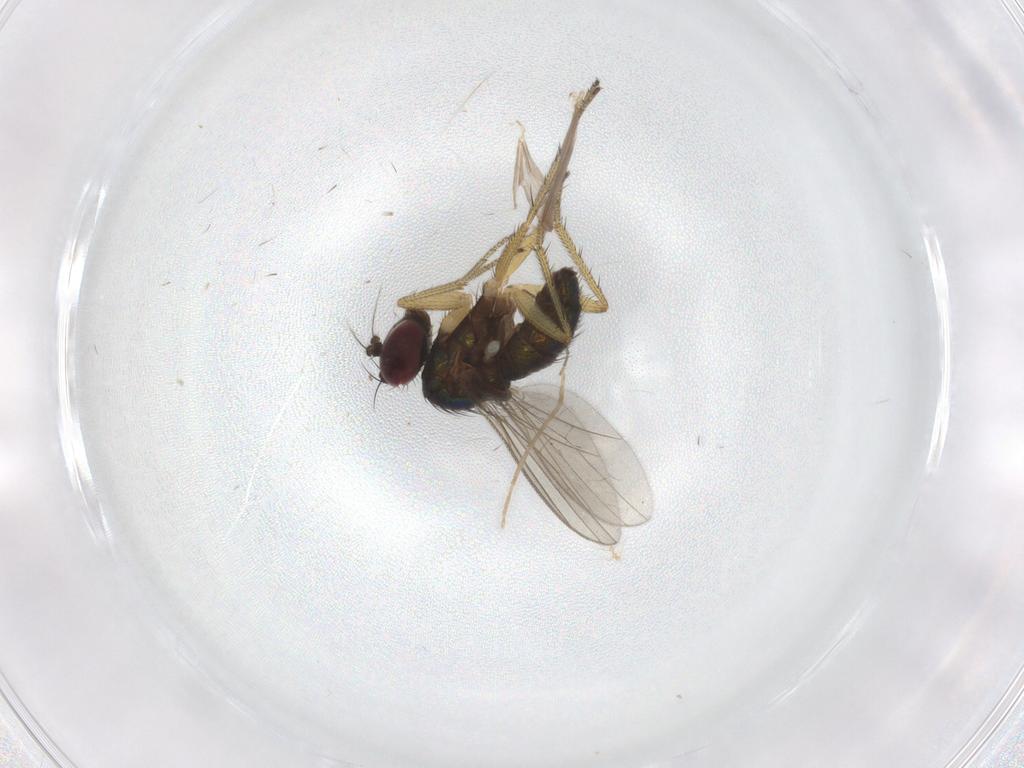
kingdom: Animalia
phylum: Arthropoda
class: Insecta
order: Diptera
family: Dolichopodidae
